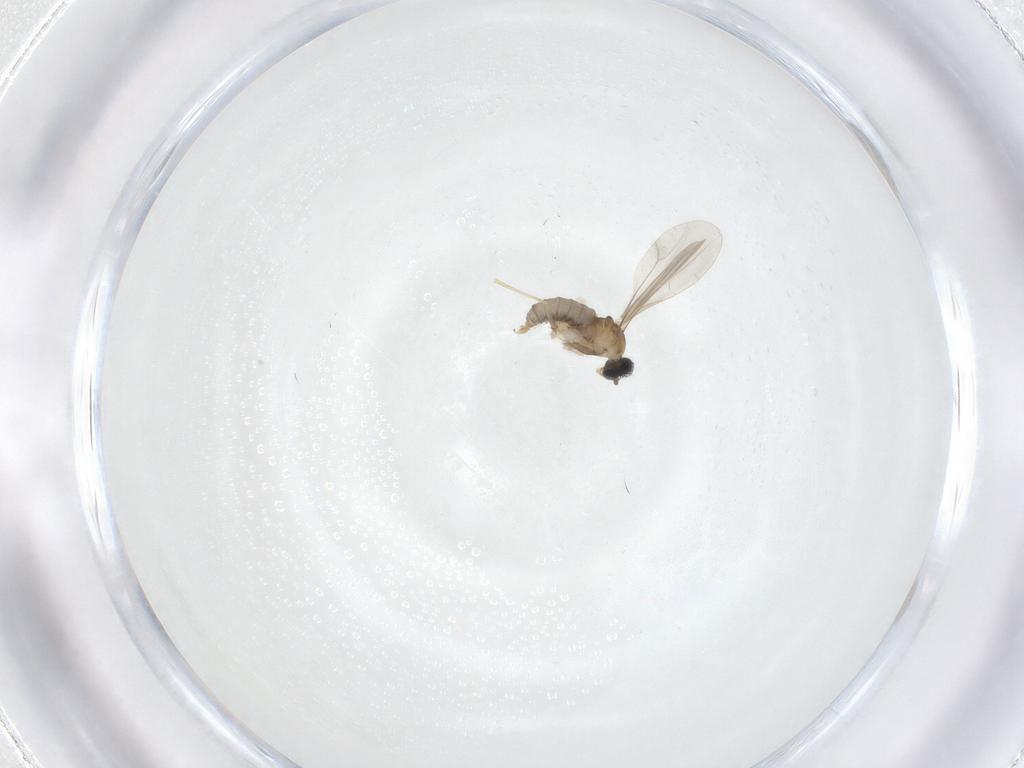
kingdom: Animalia
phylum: Arthropoda
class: Insecta
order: Diptera
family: Cecidomyiidae
